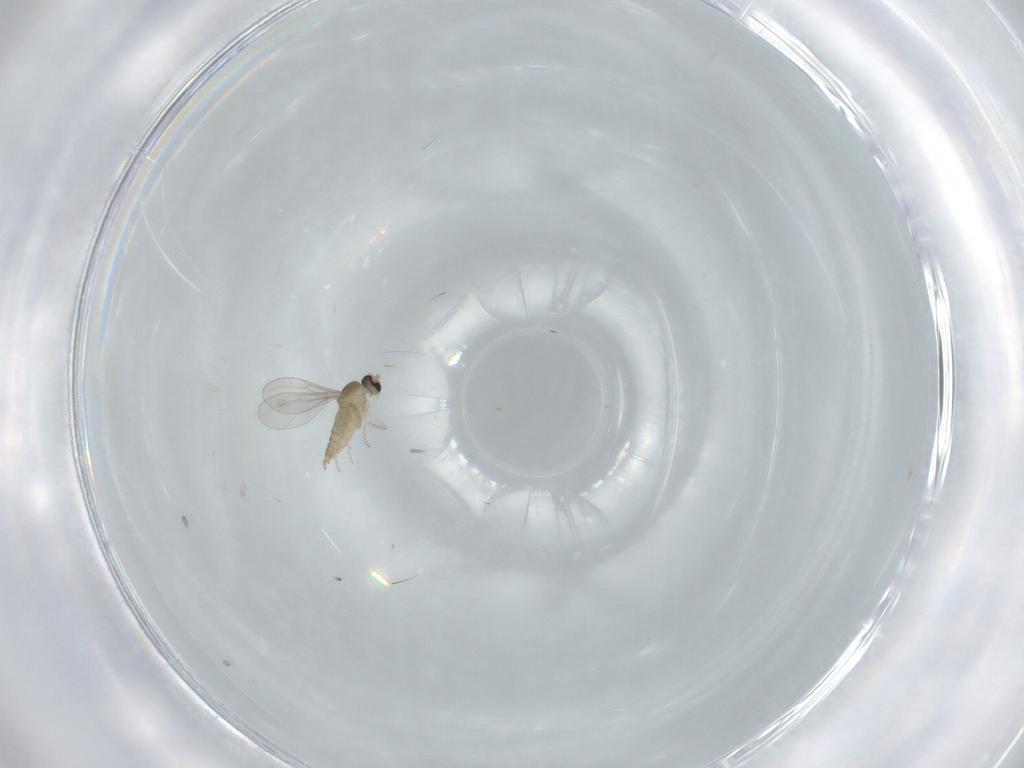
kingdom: Animalia
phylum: Arthropoda
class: Insecta
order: Diptera
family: Cecidomyiidae
